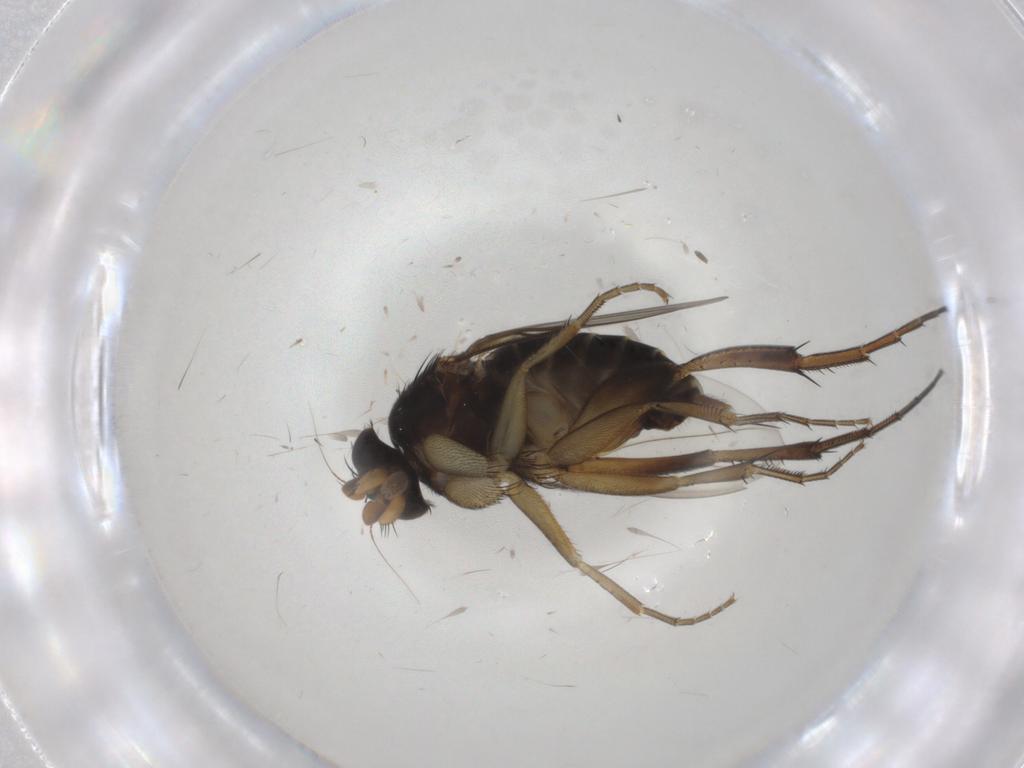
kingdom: Animalia
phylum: Arthropoda
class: Insecta
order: Diptera
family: Phoridae
